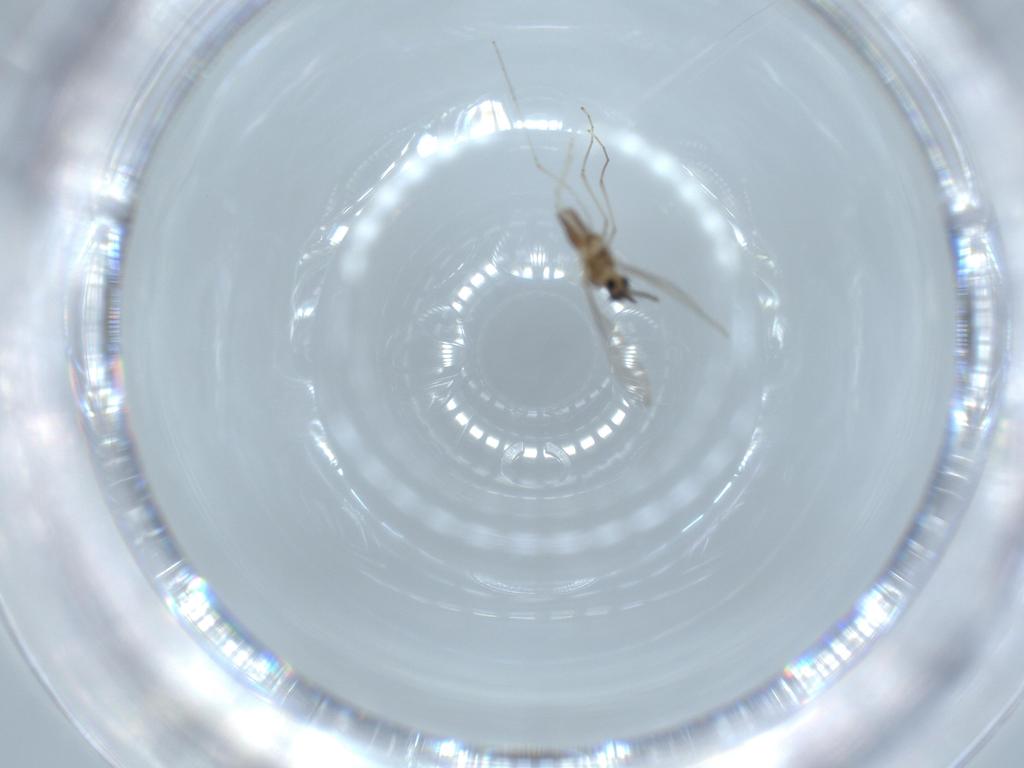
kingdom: Animalia
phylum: Arthropoda
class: Insecta
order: Diptera
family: Cecidomyiidae
